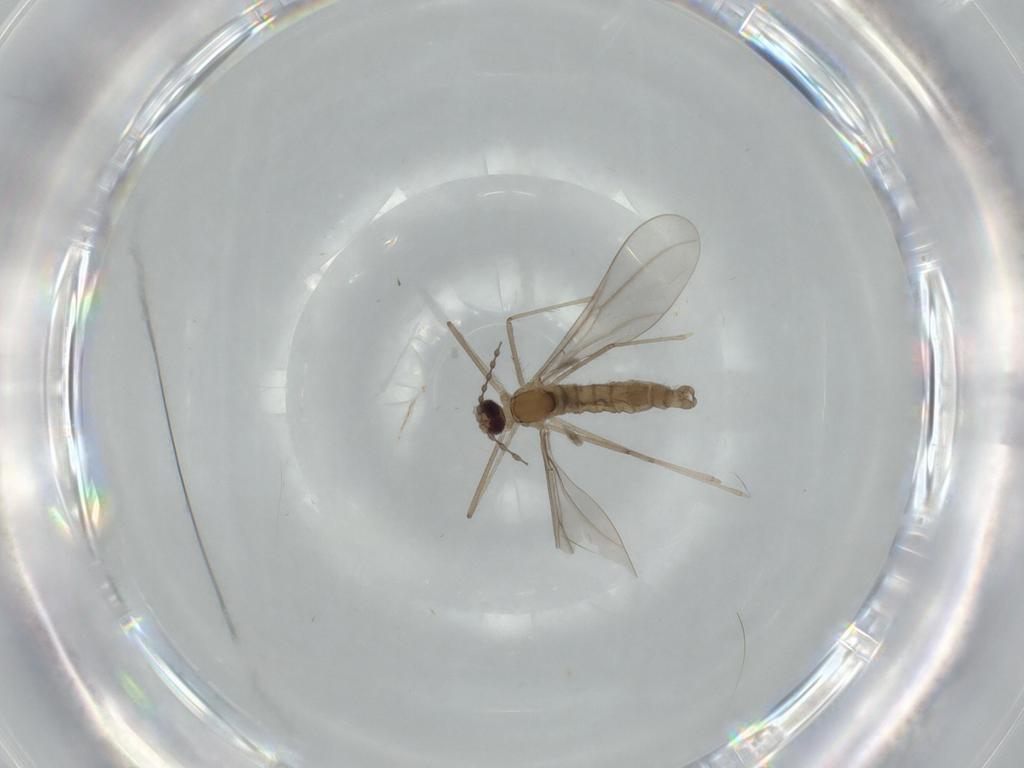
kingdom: Animalia
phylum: Arthropoda
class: Insecta
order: Diptera
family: Cecidomyiidae
